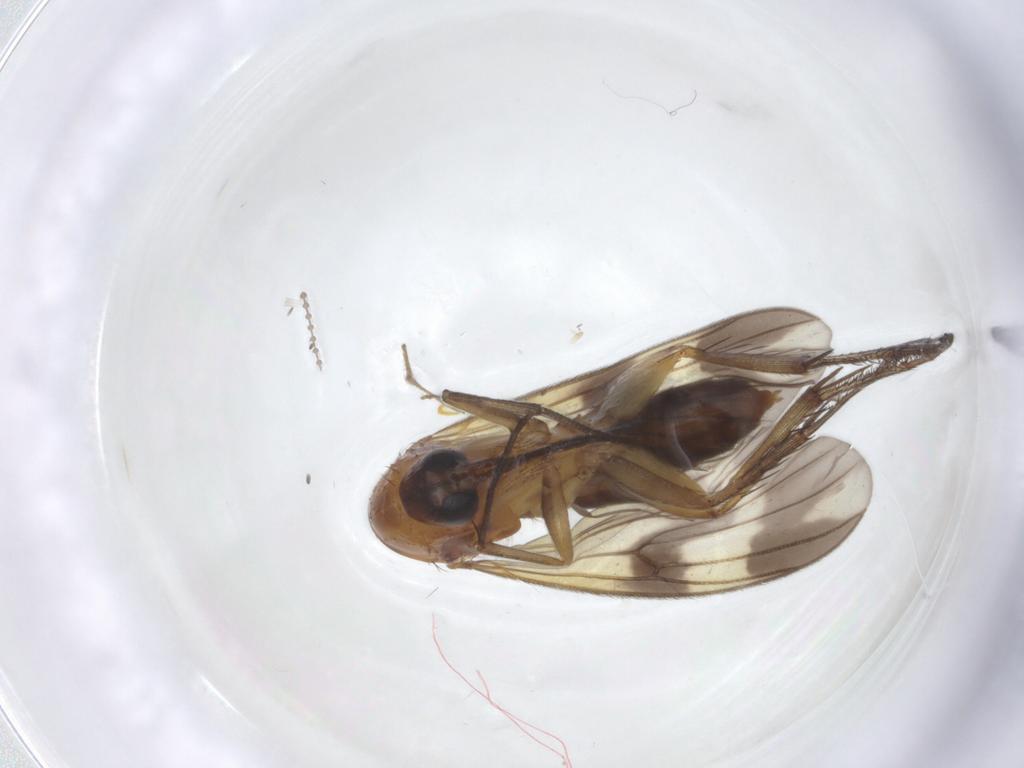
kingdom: Animalia
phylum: Arthropoda
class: Insecta
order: Diptera
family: Mycetophilidae
